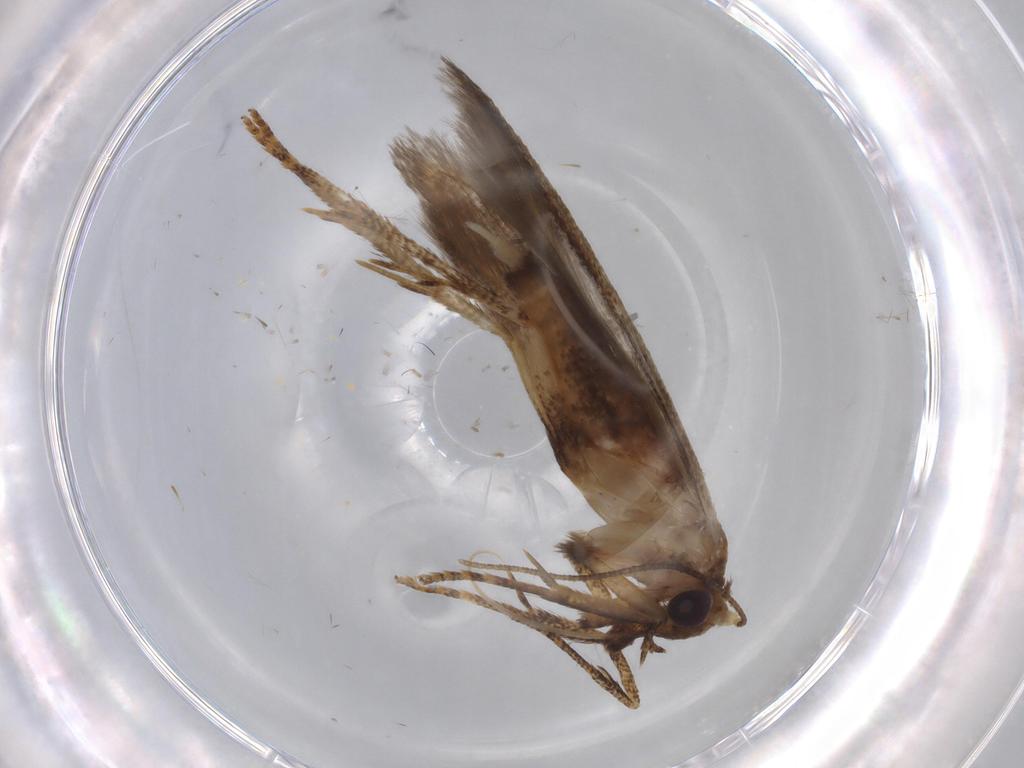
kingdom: Animalia
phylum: Arthropoda
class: Insecta
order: Lepidoptera
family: Blastobasidae
